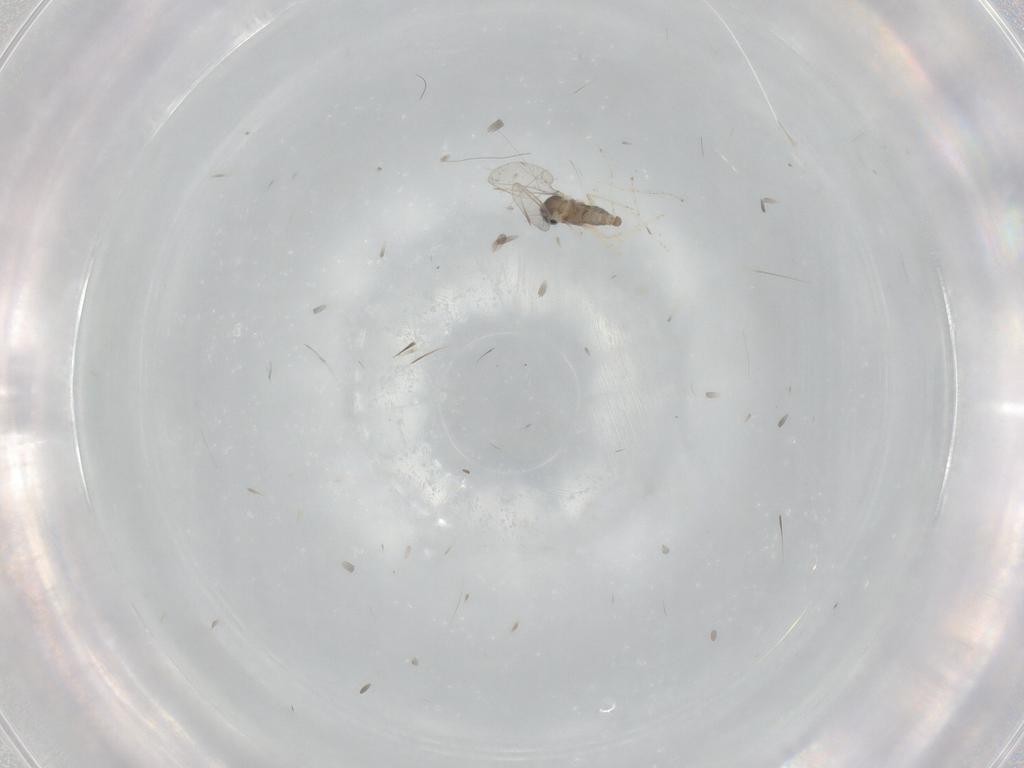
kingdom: Animalia
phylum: Arthropoda
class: Insecta
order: Diptera
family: Cecidomyiidae
